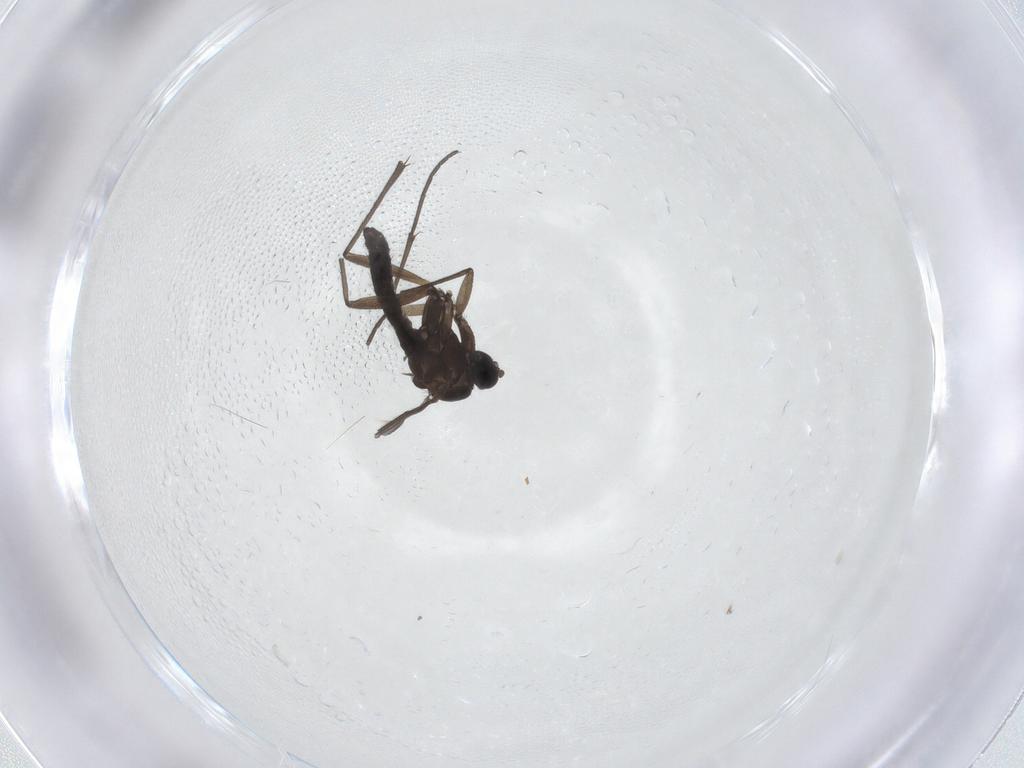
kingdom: Animalia
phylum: Arthropoda
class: Insecta
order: Diptera
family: Sciaridae
